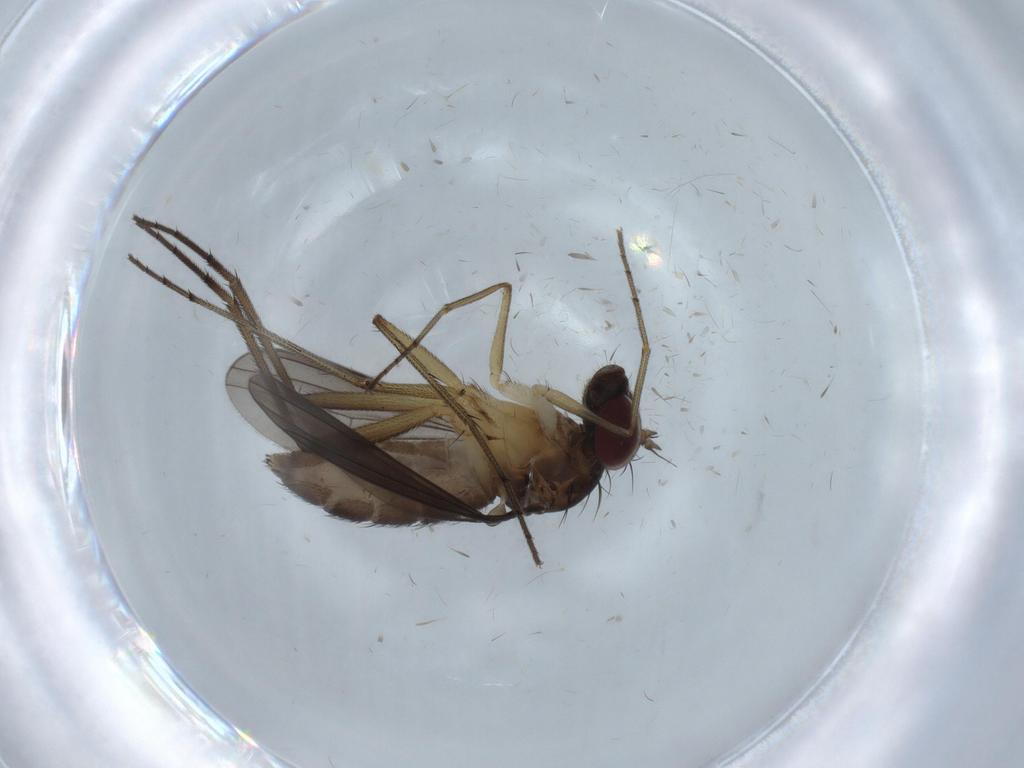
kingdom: Animalia
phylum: Arthropoda
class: Insecta
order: Diptera
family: Dolichopodidae
